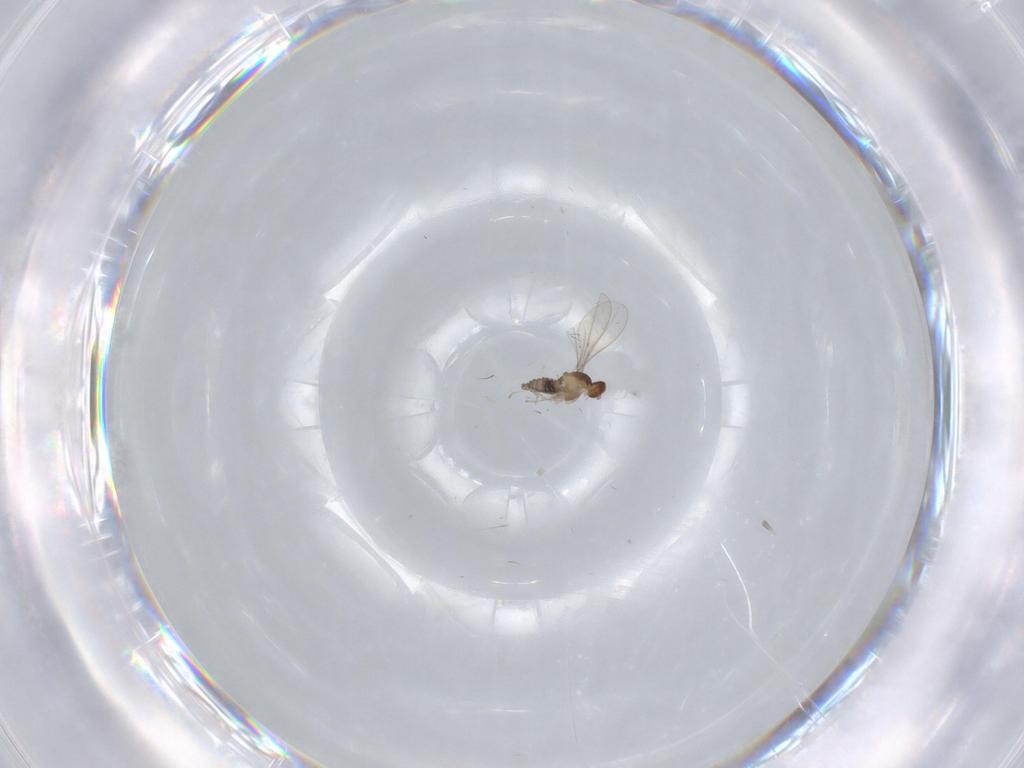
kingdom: Animalia
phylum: Arthropoda
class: Insecta
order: Diptera
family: Cecidomyiidae
